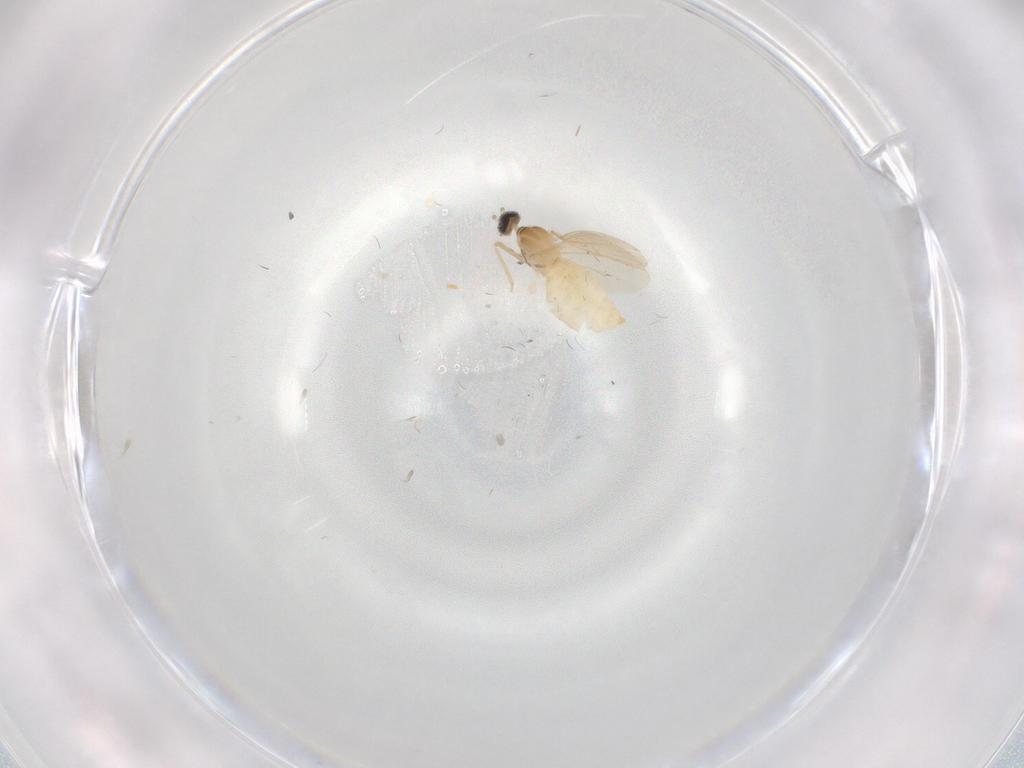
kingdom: Animalia
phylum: Arthropoda
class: Insecta
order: Diptera
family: Cecidomyiidae
